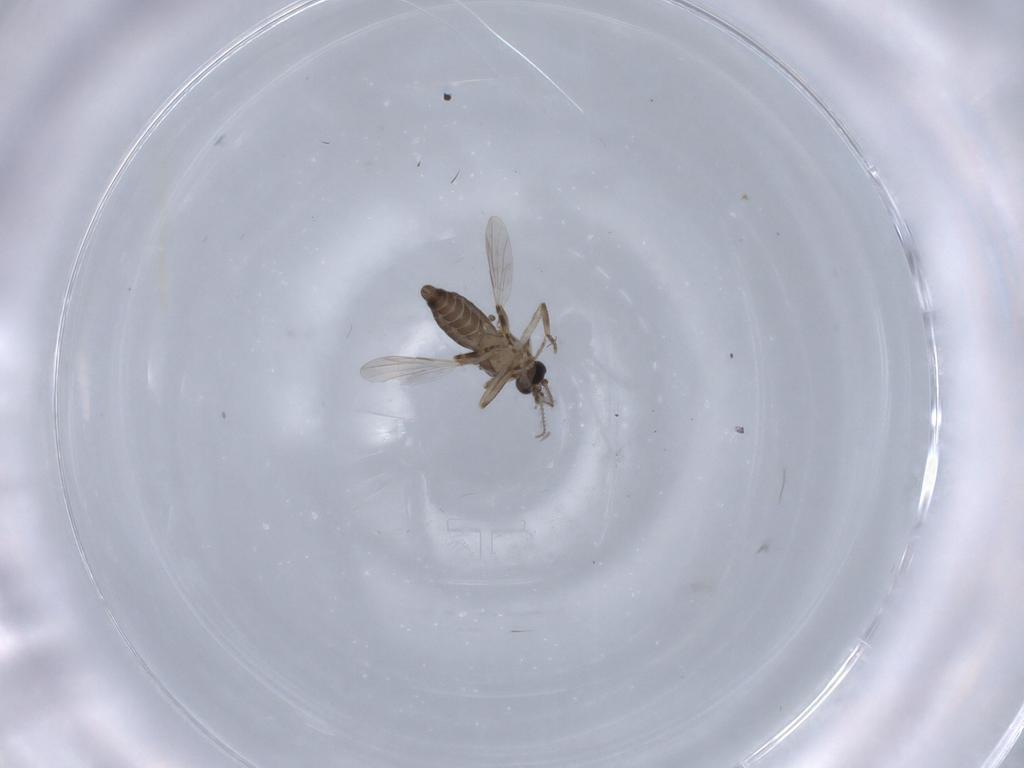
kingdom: Animalia
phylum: Arthropoda
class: Insecta
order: Diptera
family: Ceratopogonidae
